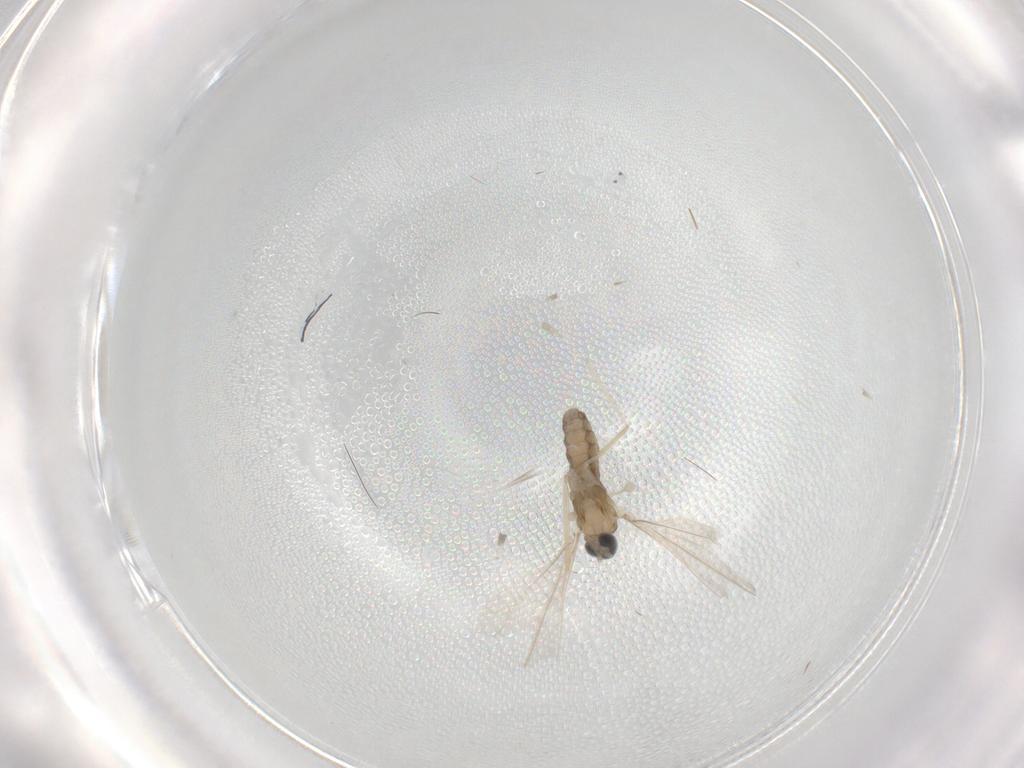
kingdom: Animalia
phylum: Arthropoda
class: Insecta
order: Diptera
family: Cecidomyiidae
